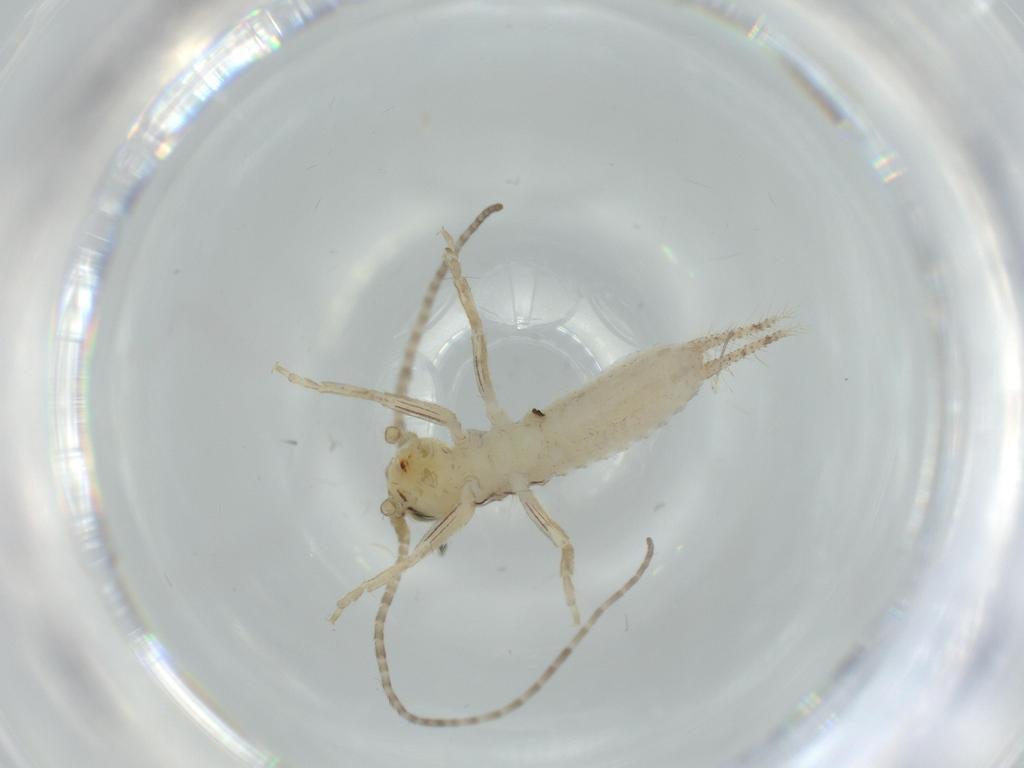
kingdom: Animalia
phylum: Arthropoda
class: Insecta
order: Orthoptera
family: Gryllidae
